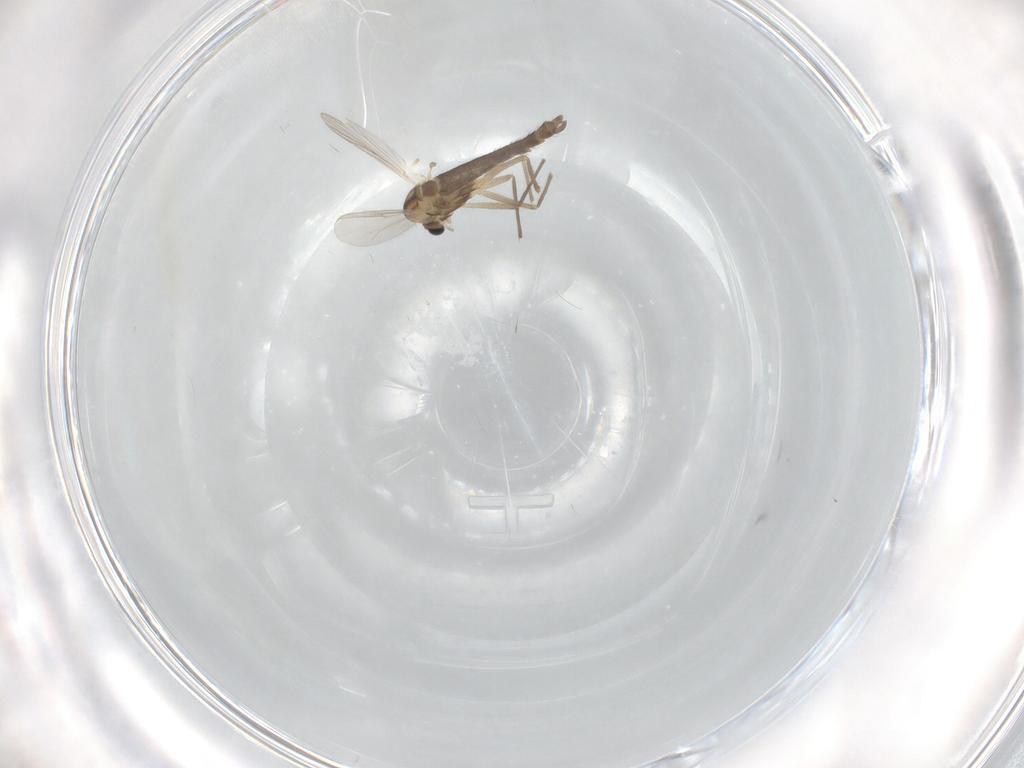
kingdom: Animalia
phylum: Arthropoda
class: Insecta
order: Diptera
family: Chironomidae
